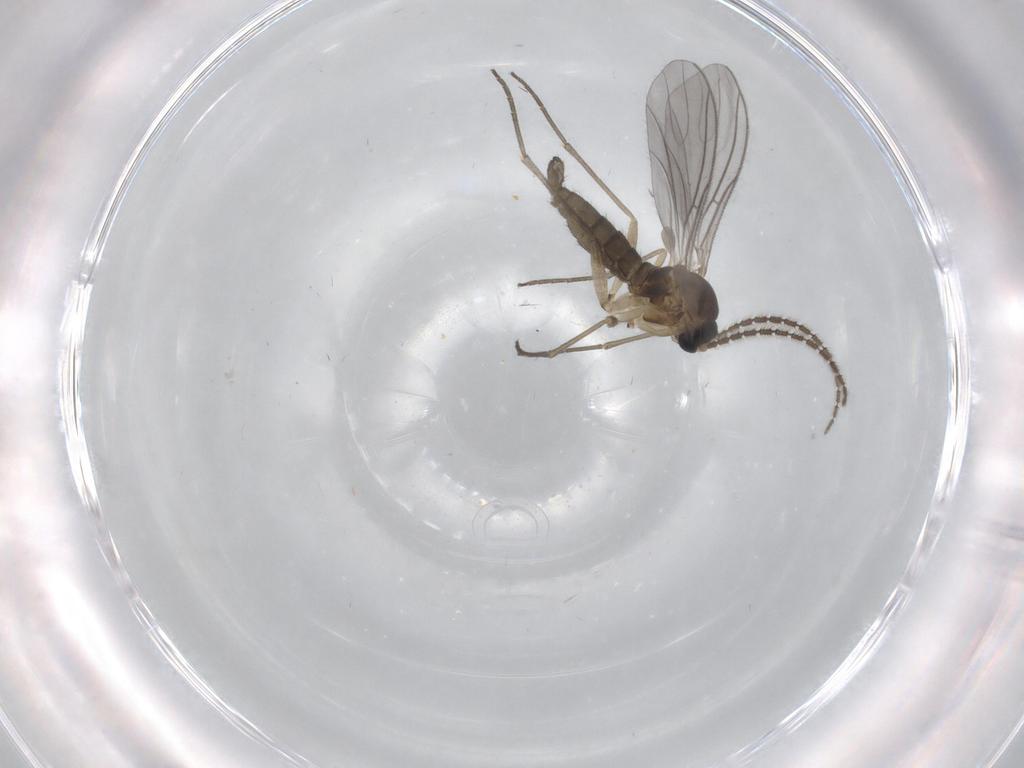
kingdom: Animalia
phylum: Arthropoda
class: Insecta
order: Diptera
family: Sciaridae
